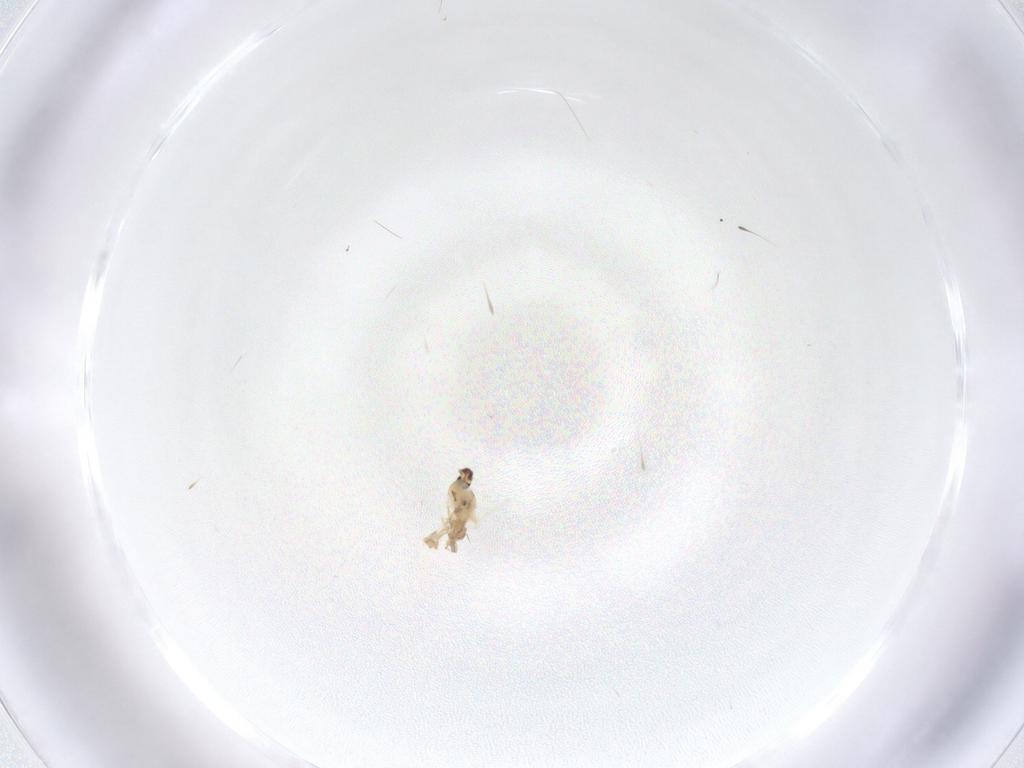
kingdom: Animalia
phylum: Arthropoda
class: Insecta
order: Diptera
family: Cecidomyiidae
